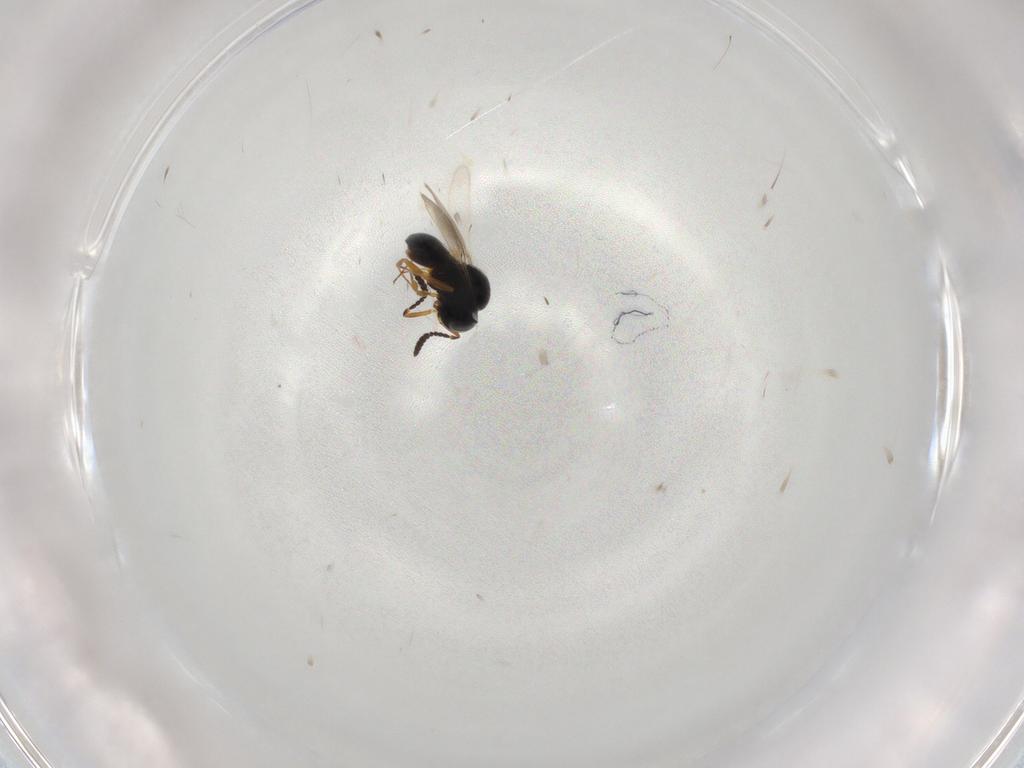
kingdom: Animalia
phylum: Arthropoda
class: Insecta
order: Hymenoptera
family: Scelionidae
